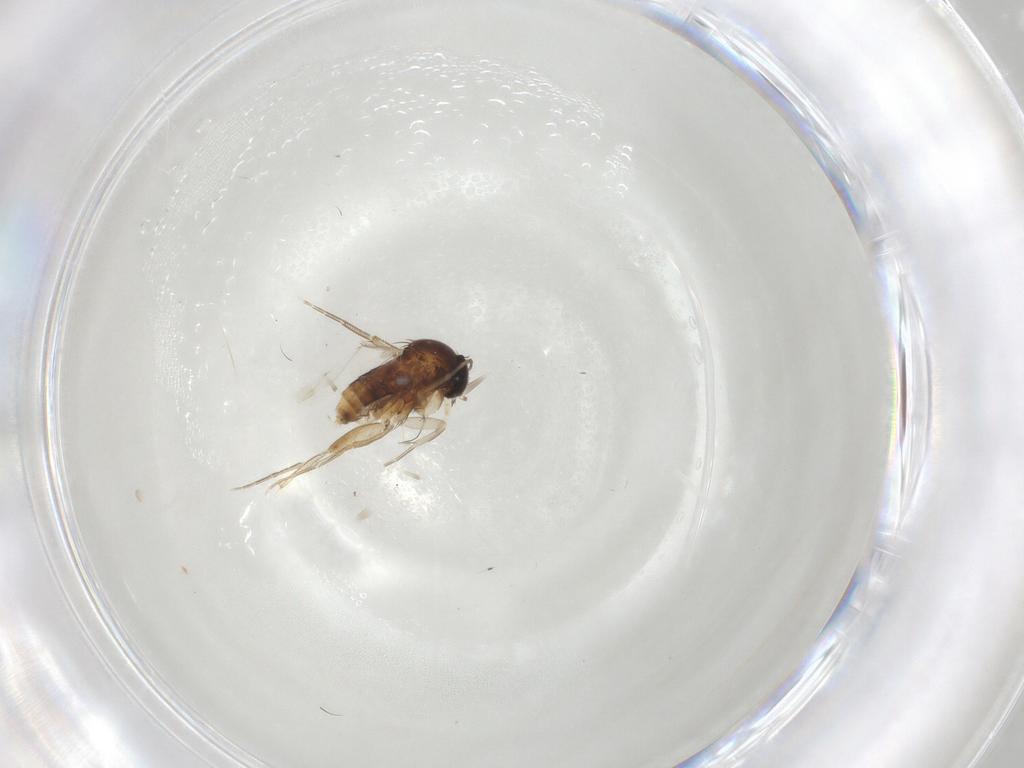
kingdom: Animalia
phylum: Arthropoda
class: Insecta
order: Diptera
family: Phoridae
